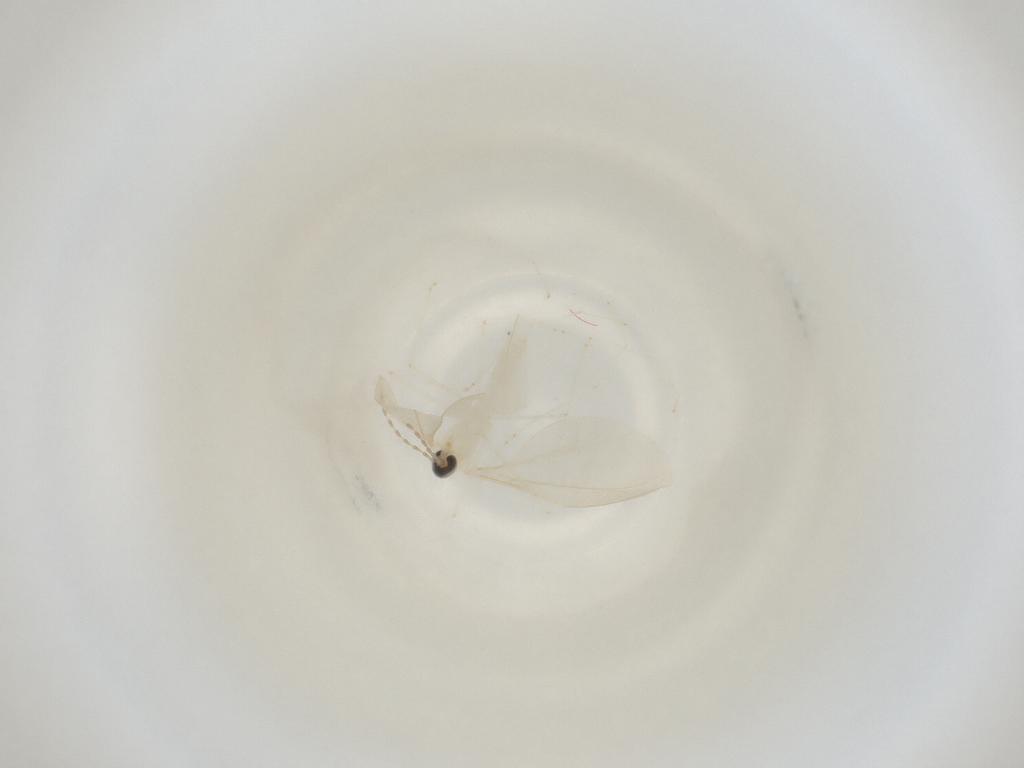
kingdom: Animalia
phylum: Arthropoda
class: Insecta
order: Diptera
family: Cecidomyiidae
